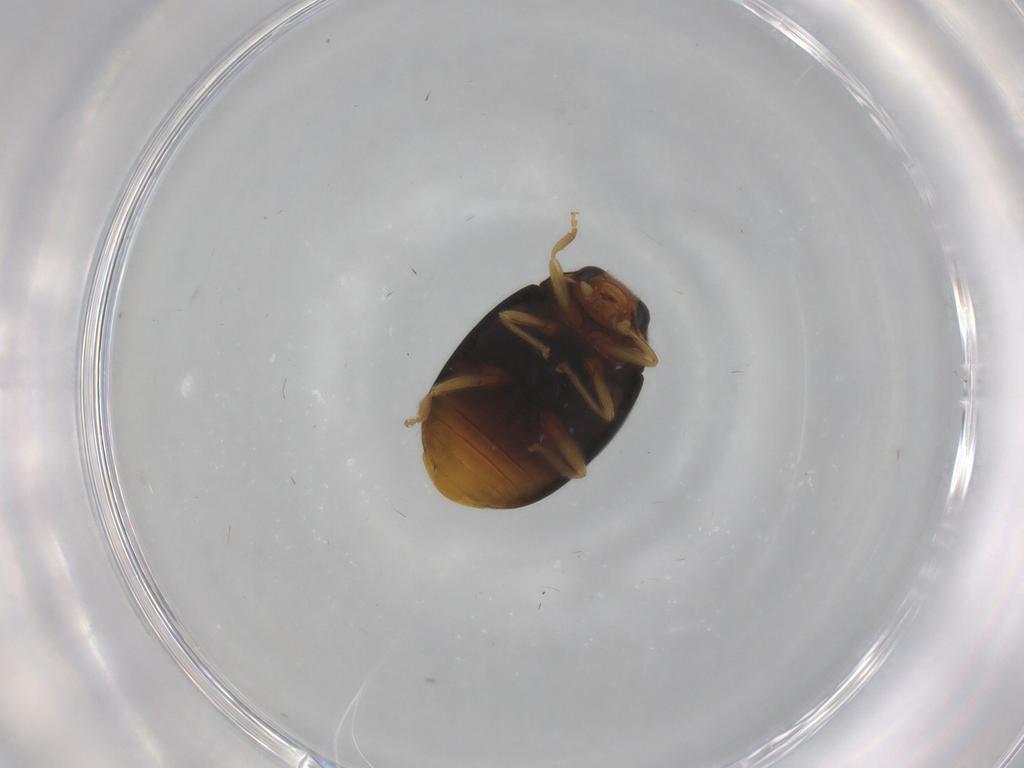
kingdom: Animalia
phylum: Arthropoda
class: Insecta
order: Coleoptera
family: Coccinellidae
